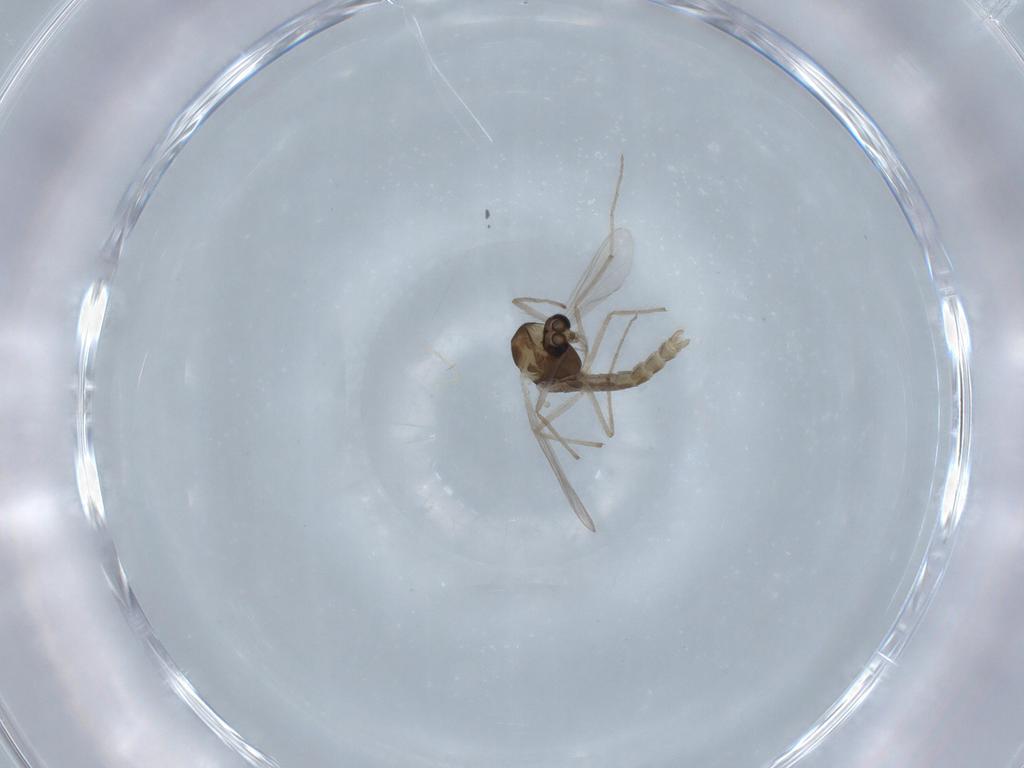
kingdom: Animalia
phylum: Arthropoda
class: Insecta
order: Diptera
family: Chironomidae
